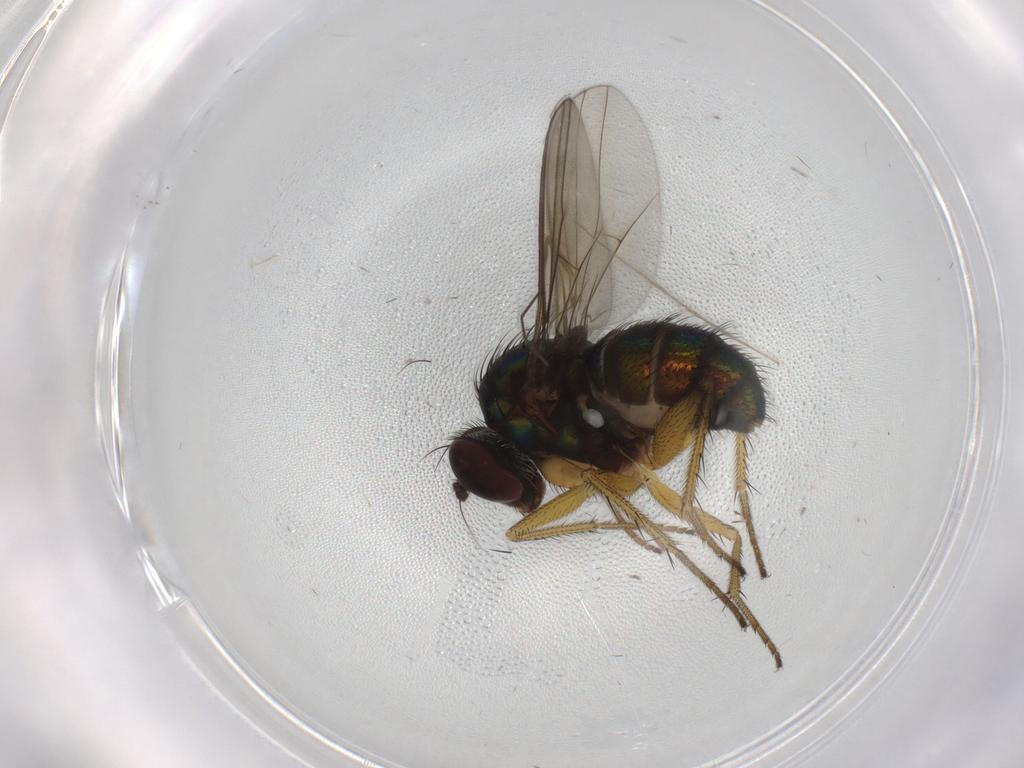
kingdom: Animalia
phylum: Arthropoda
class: Insecta
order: Diptera
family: Dolichopodidae
